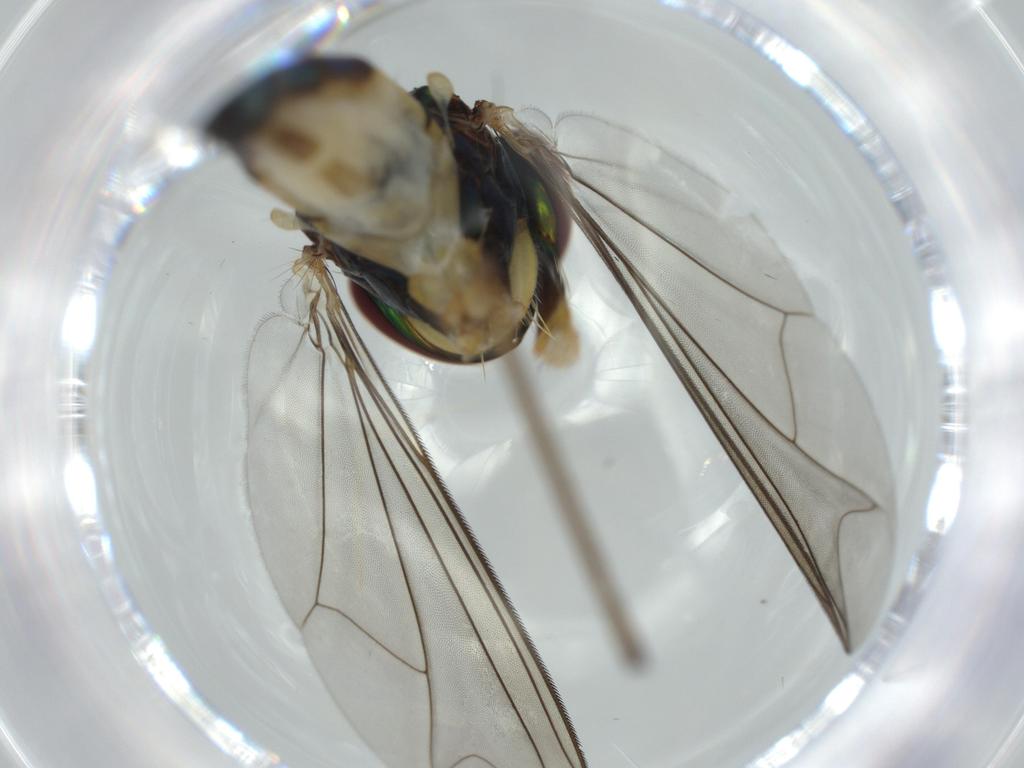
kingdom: Animalia
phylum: Arthropoda
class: Insecta
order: Diptera
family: Dolichopodidae
